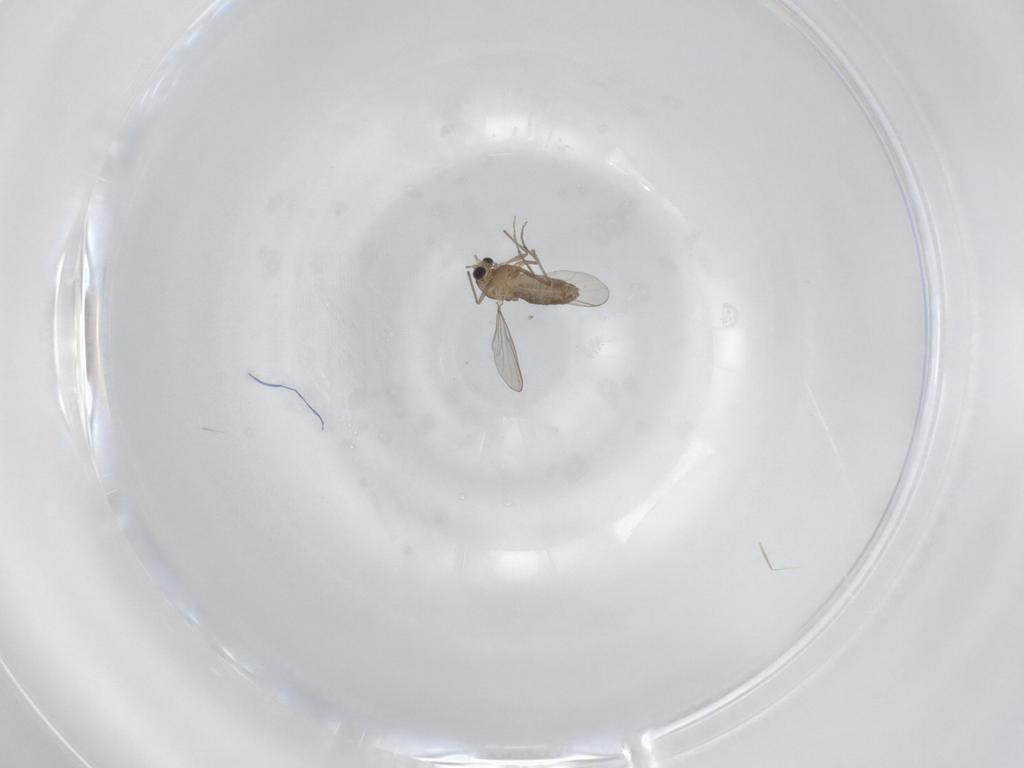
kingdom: Animalia
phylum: Arthropoda
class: Insecta
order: Diptera
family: Chironomidae
